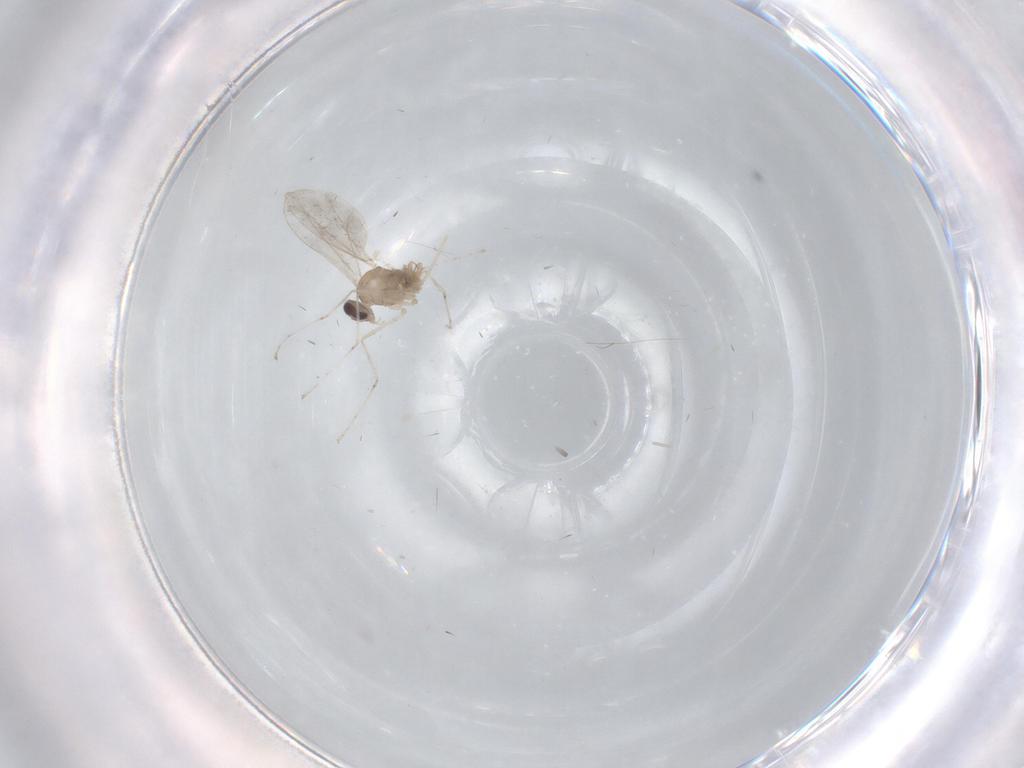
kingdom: Animalia
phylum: Arthropoda
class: Insecta
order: Diptera
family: Cecidomyiidae
